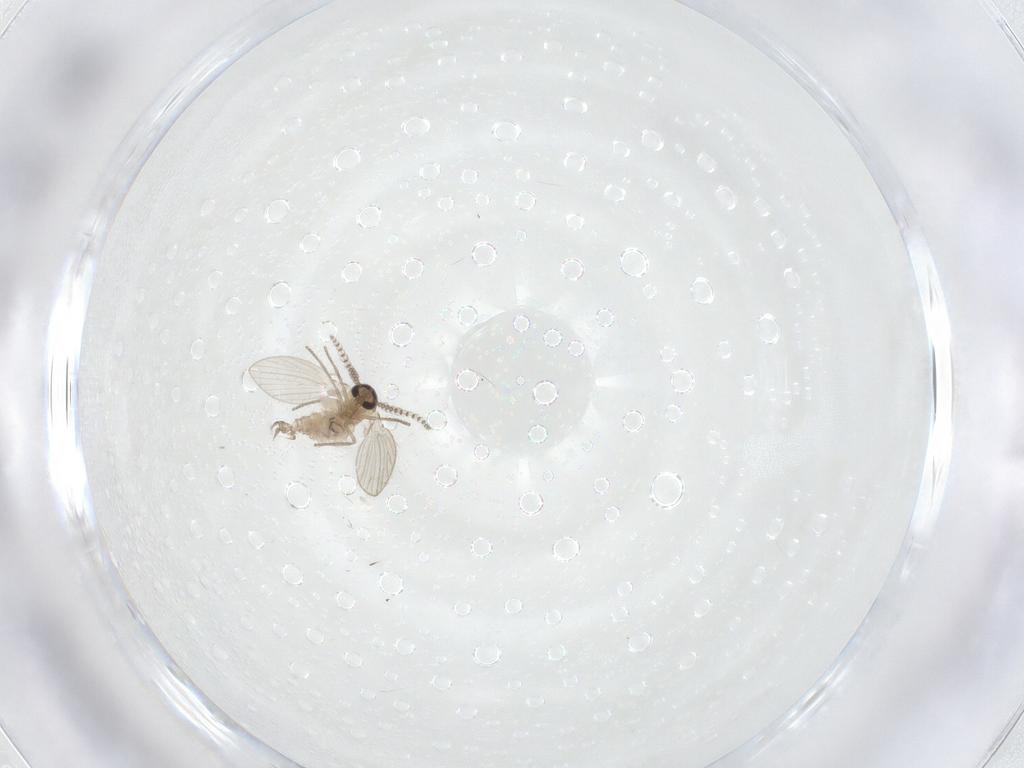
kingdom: Animalia
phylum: Arthropoda
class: Insecta
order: Diptera
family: Psychodidae
